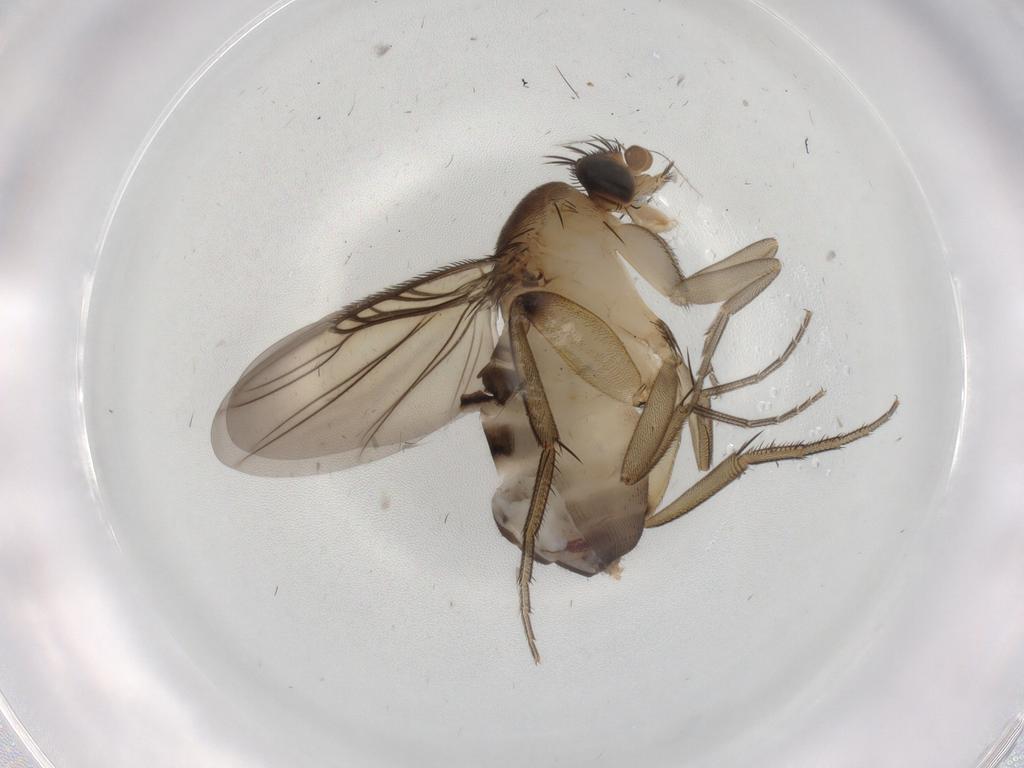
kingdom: Animalia
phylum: Arthropoda
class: Insecta
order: Diptera
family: Phoridae
